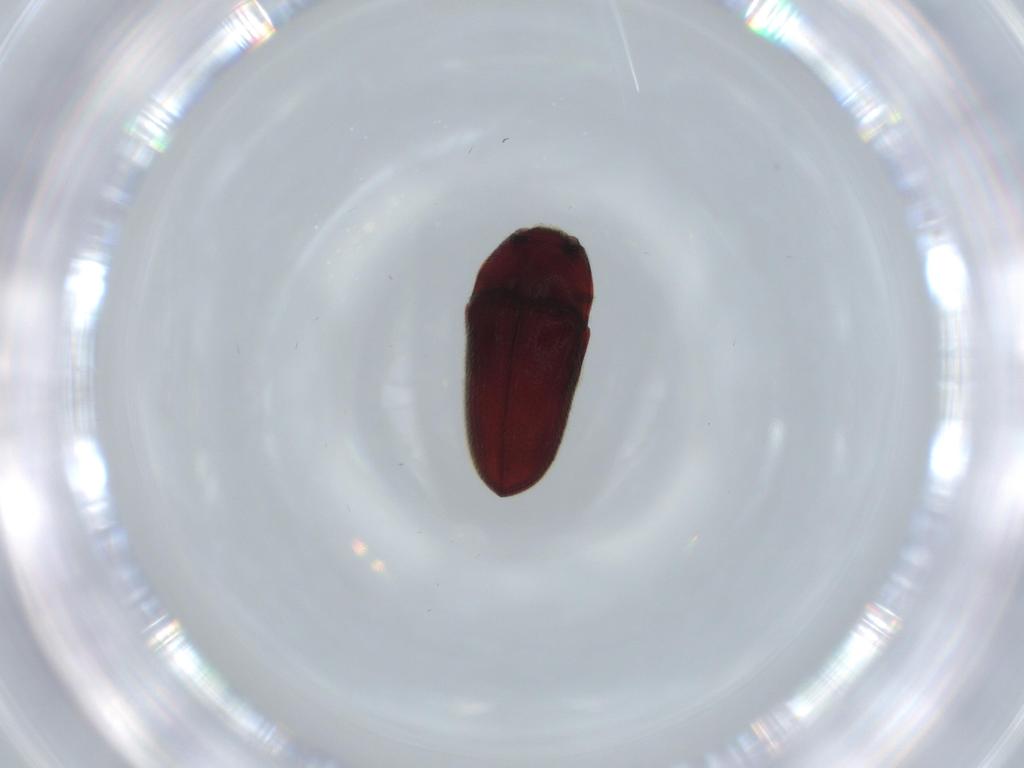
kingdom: Animalia
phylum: Arthropoda
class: Insecta
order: Coleoptera
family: Throscidae
